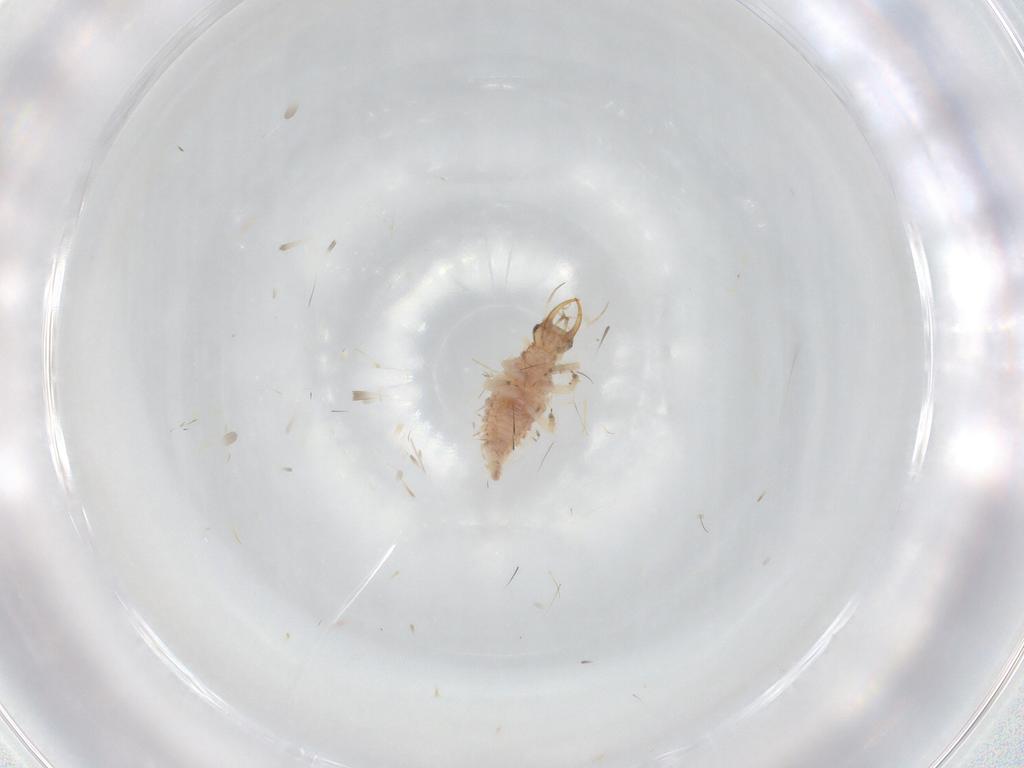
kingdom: Animalia
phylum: Arthropoda
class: Insecta
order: Neuroptera
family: Chrysopidae
